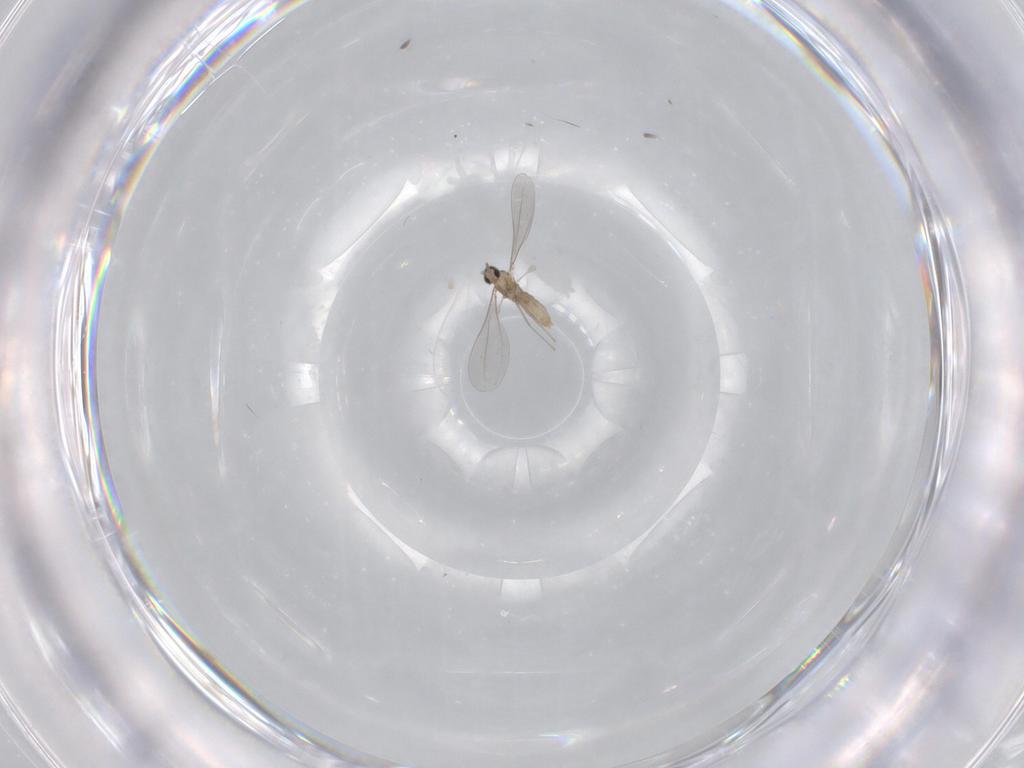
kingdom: Animalia
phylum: Arthropoda
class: Insecta
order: Diptera
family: Cecidomyiidae
